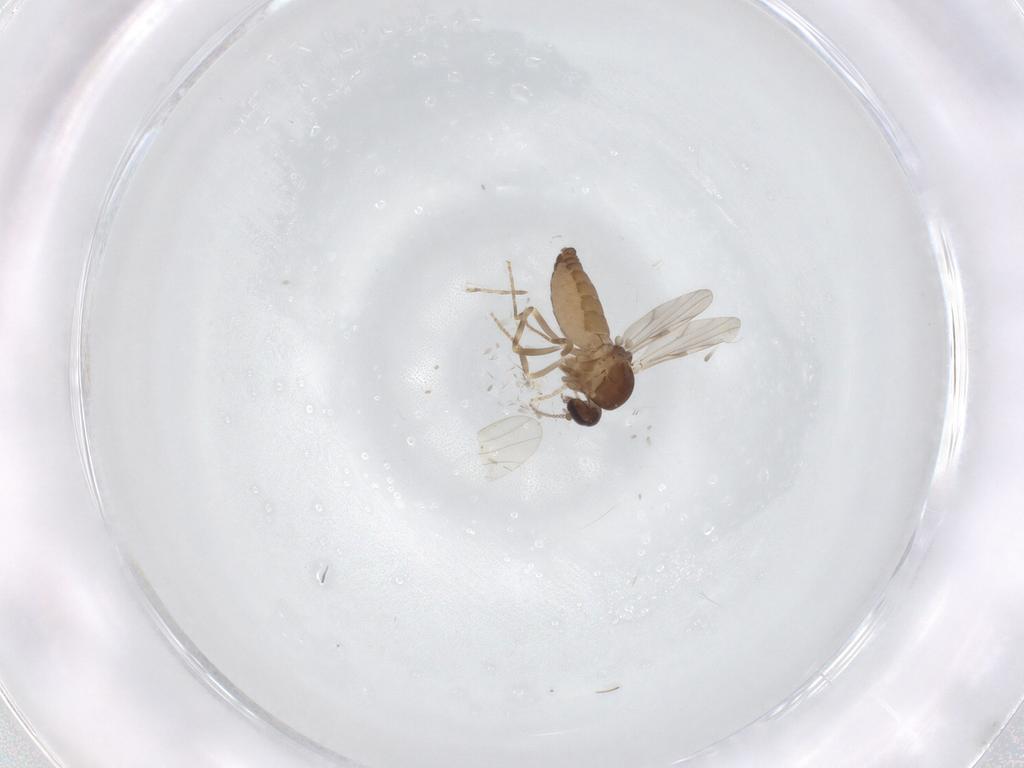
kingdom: Animalia
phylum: Arthropoda
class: Insecta
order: Diptera
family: Ceratopogonidae
